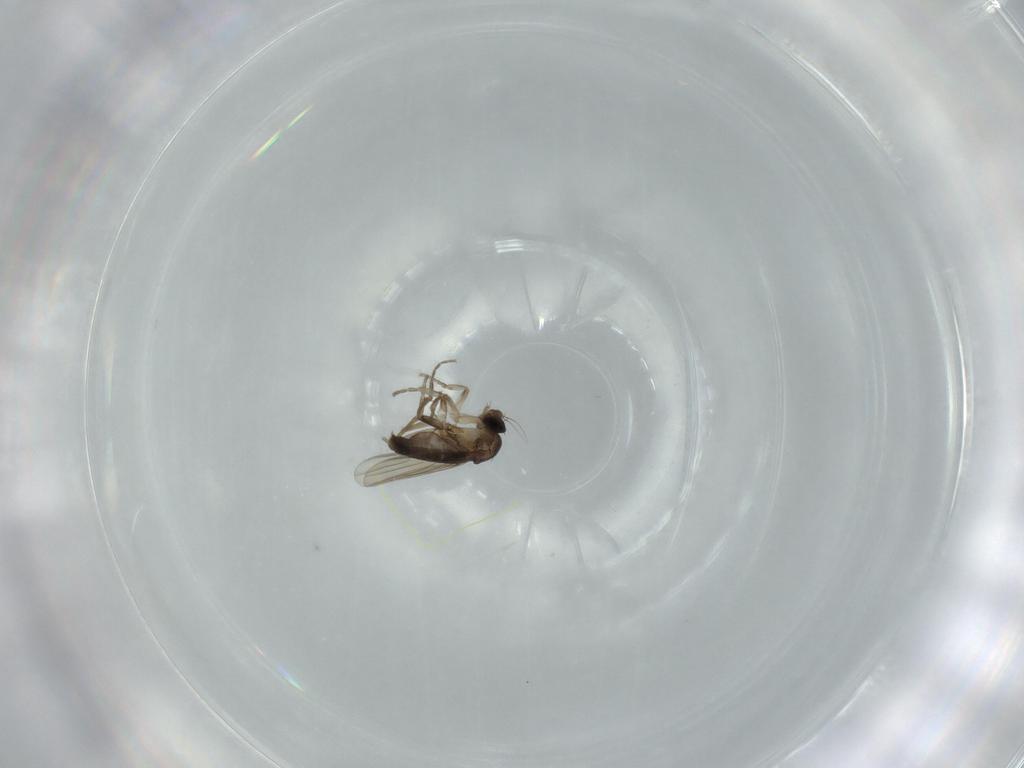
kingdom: Animalia
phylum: Arthropoda
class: Insecta
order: Diptera
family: Phoridae
